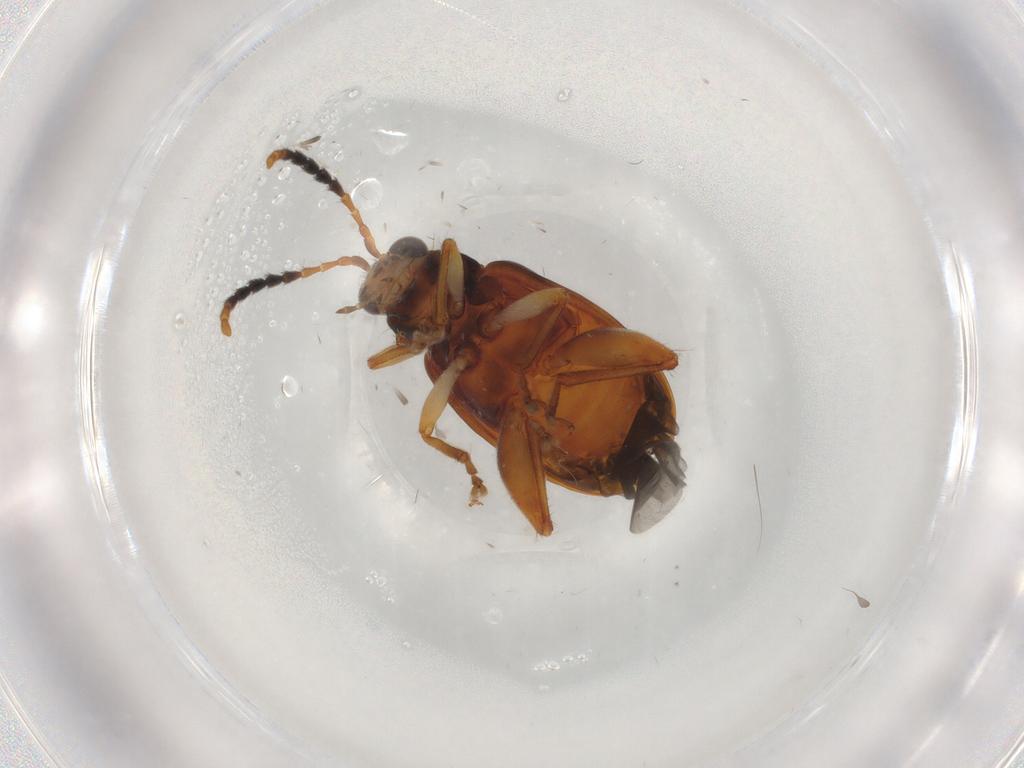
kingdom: Animalia
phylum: Arthropoda
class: Insecta
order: Coleoptera
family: Chrysomelidae
